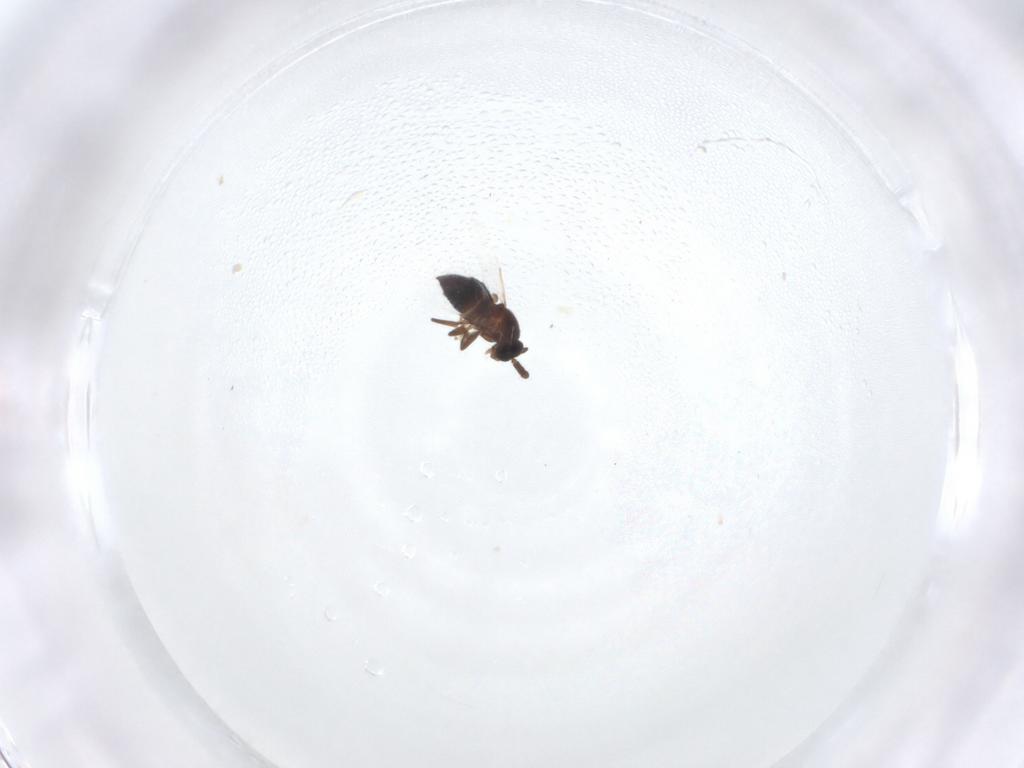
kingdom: Animalia
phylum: Arthropoda
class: Insecta
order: Diptera
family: Scatopsidae
